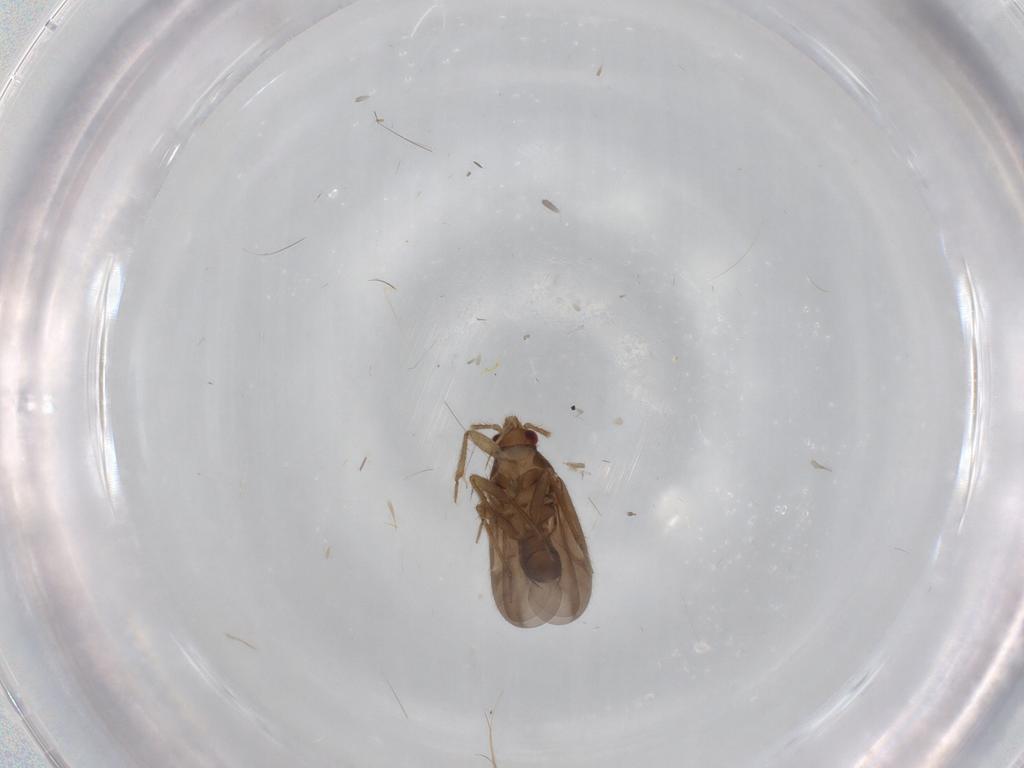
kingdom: Animalia
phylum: Arthropoda
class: Insecta
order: Hemiptera
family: Ceratocombidae
